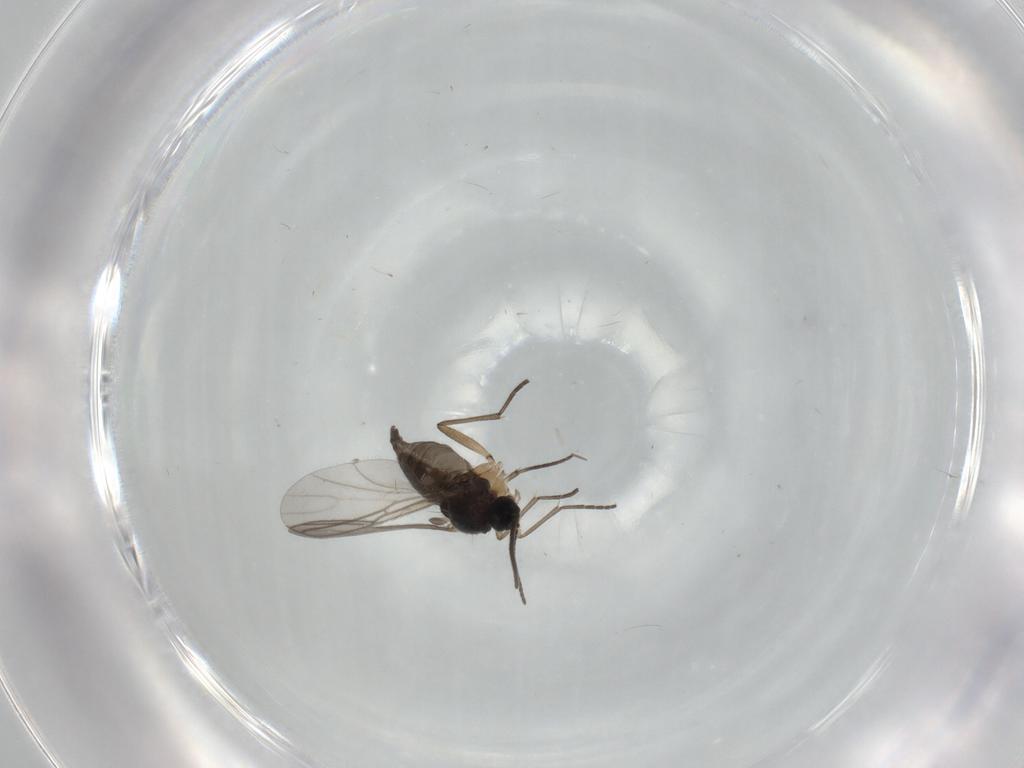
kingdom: Animalia
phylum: Arthropoda
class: Insecta
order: Diptera
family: Sciaridae
